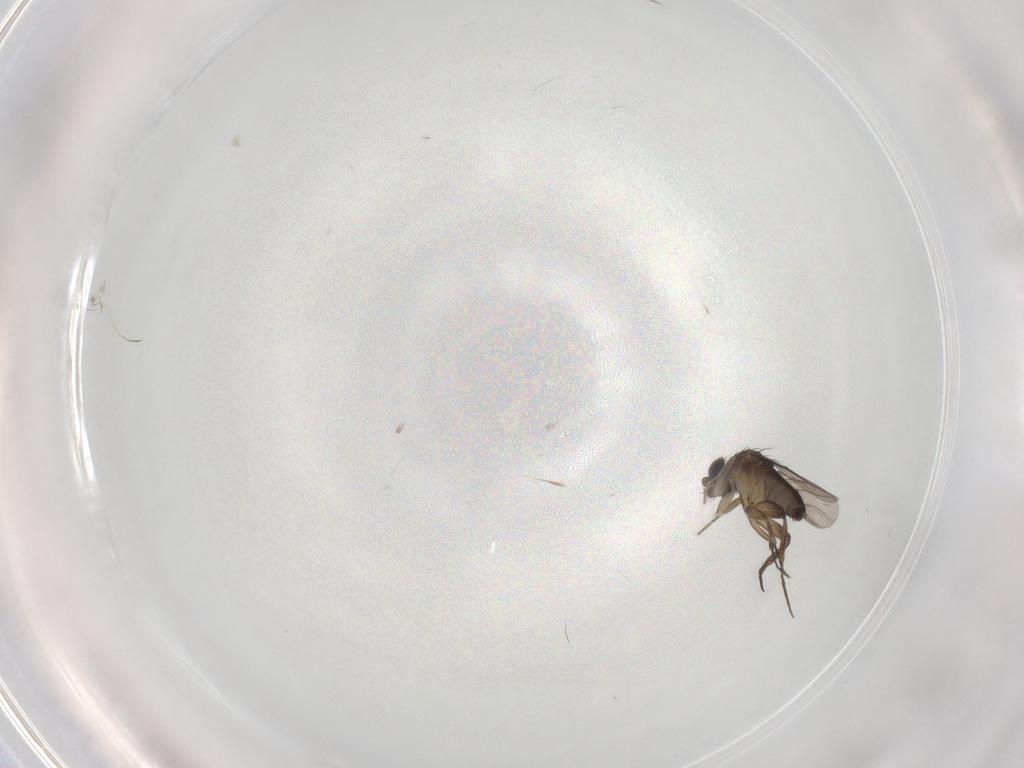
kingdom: Animalia
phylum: Arthropoda
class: Insecta
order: Diptera
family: Phoridae
